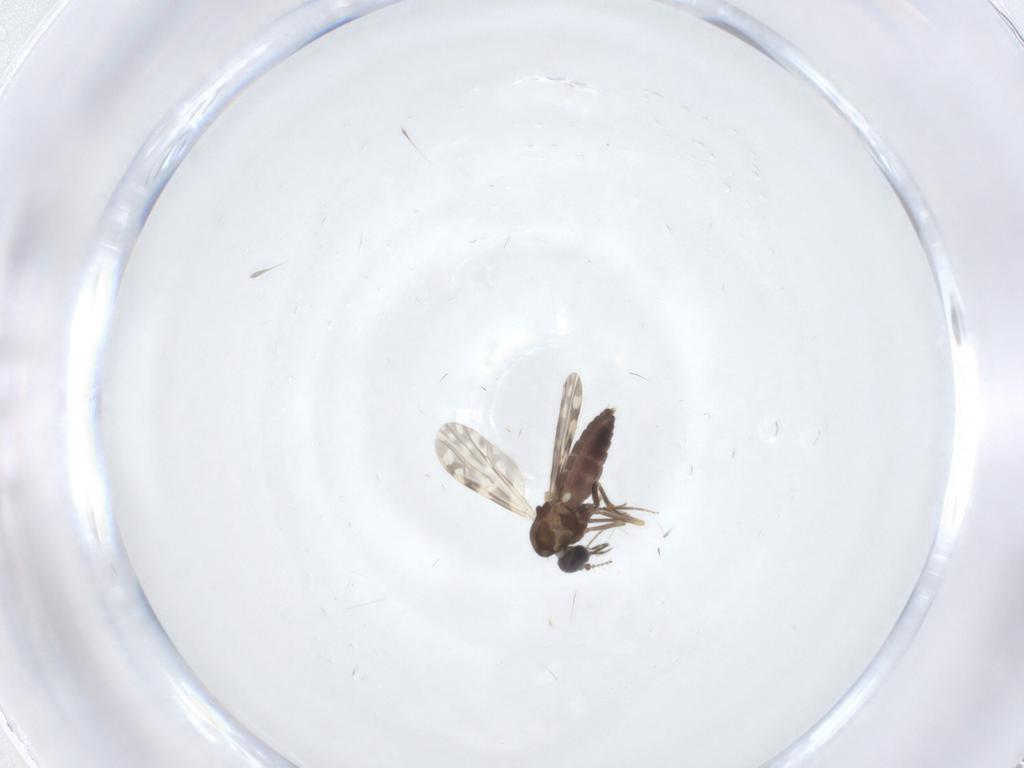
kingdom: Animalia
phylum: Arthropoda
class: Insecta
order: Diptera
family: Ceratopogonidae
